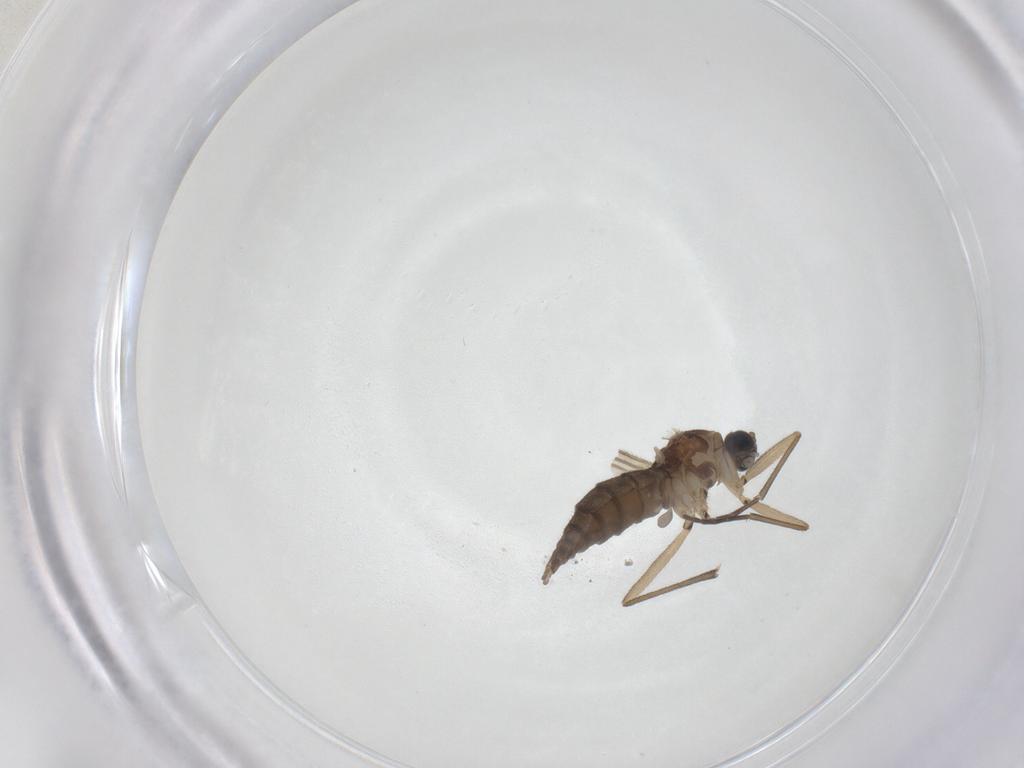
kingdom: Animalia
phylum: Arthropoda
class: Insecta
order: Diptera
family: Sciaridae
